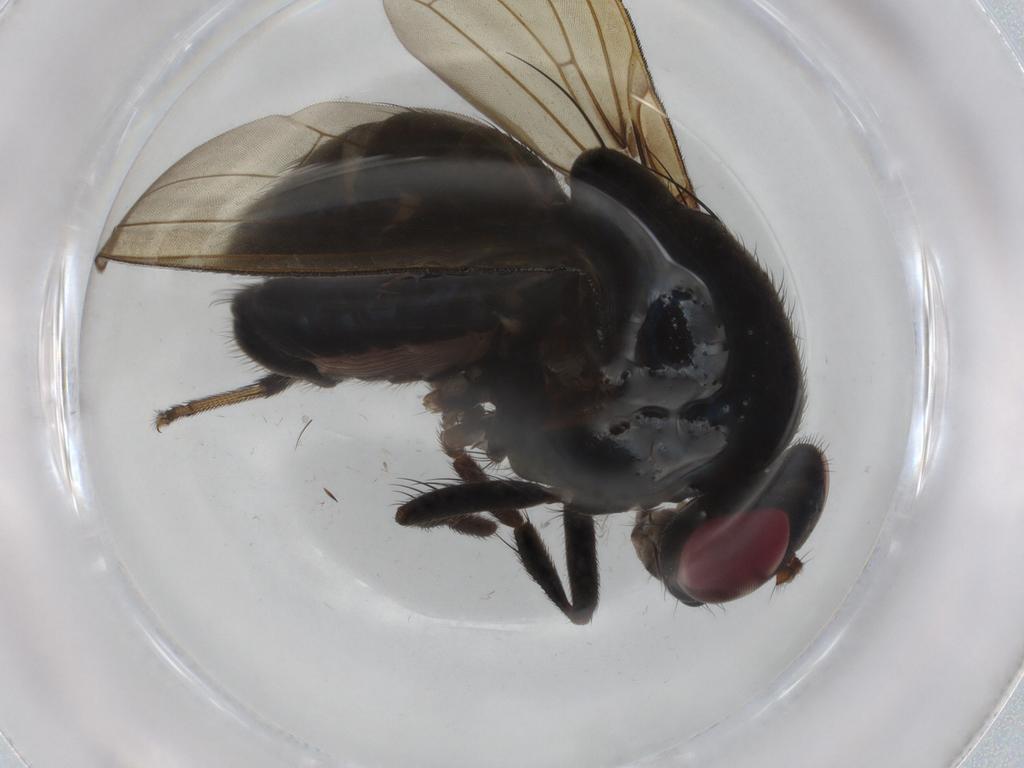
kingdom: Animalia
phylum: Arthropoda
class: Insecta
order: Diptera
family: Lauxaniidae
